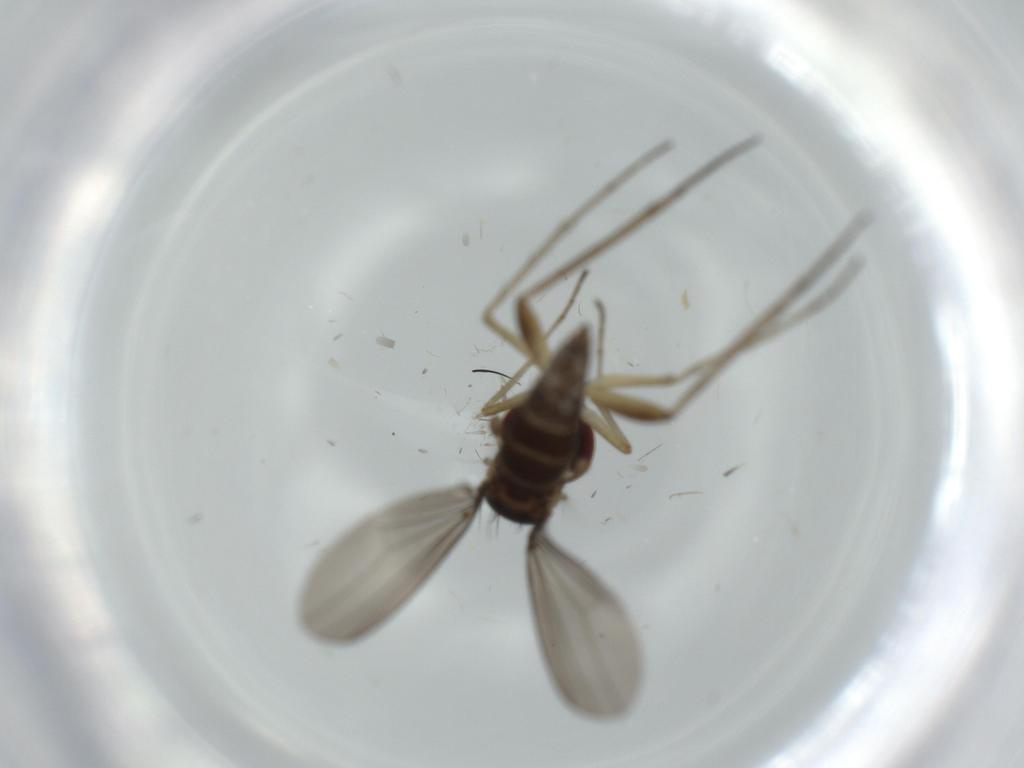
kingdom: Animalia
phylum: Arthropoda
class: Insecta
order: Diptera
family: Dolichopodidae
